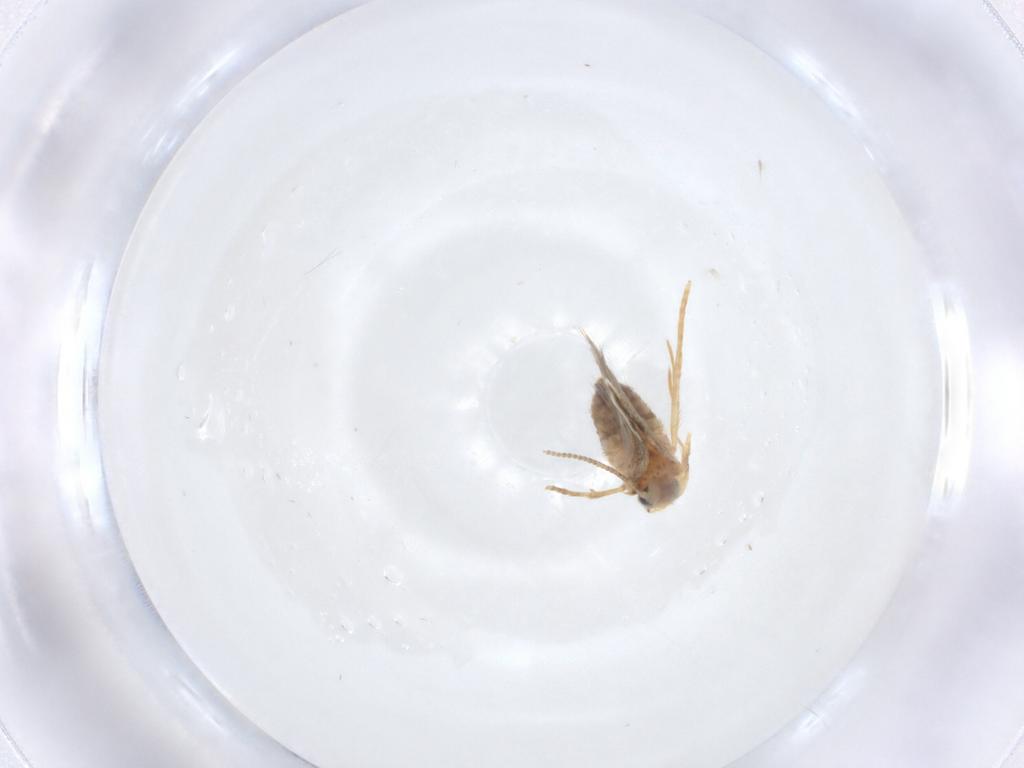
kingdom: Animalia
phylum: Arthropoda
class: Insecta
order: Lepidoptera
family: Nepticulidae
